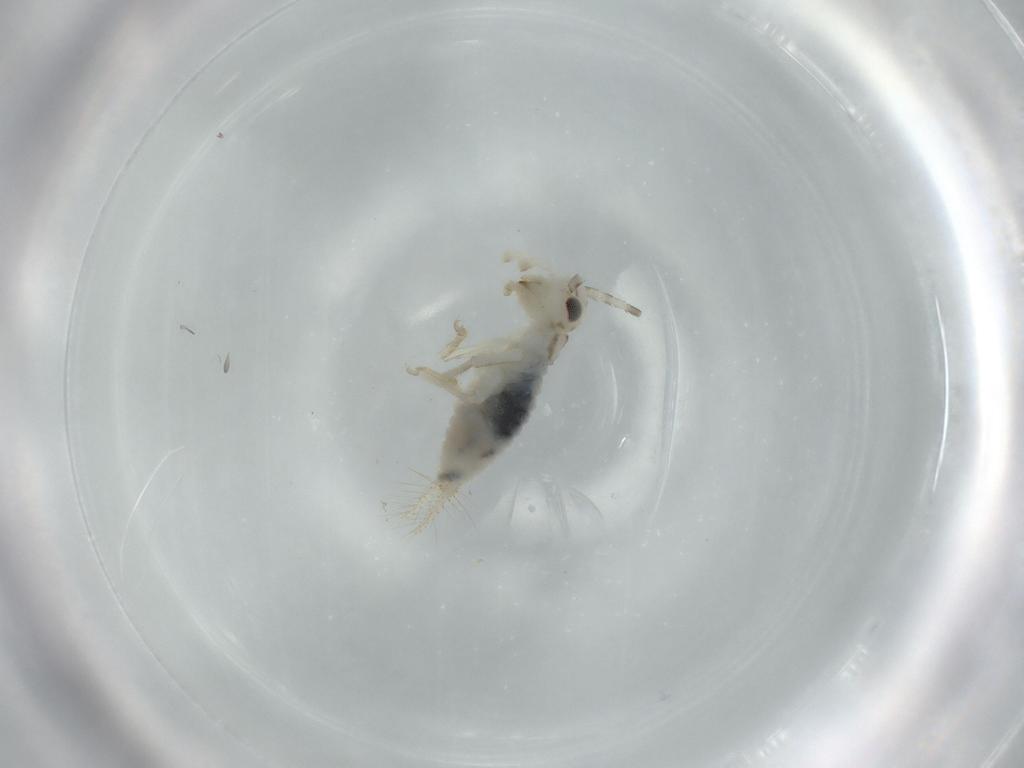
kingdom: Animalia
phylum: Arthropoda
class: Insecta
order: Orthoptera
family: Trigonidiidae
